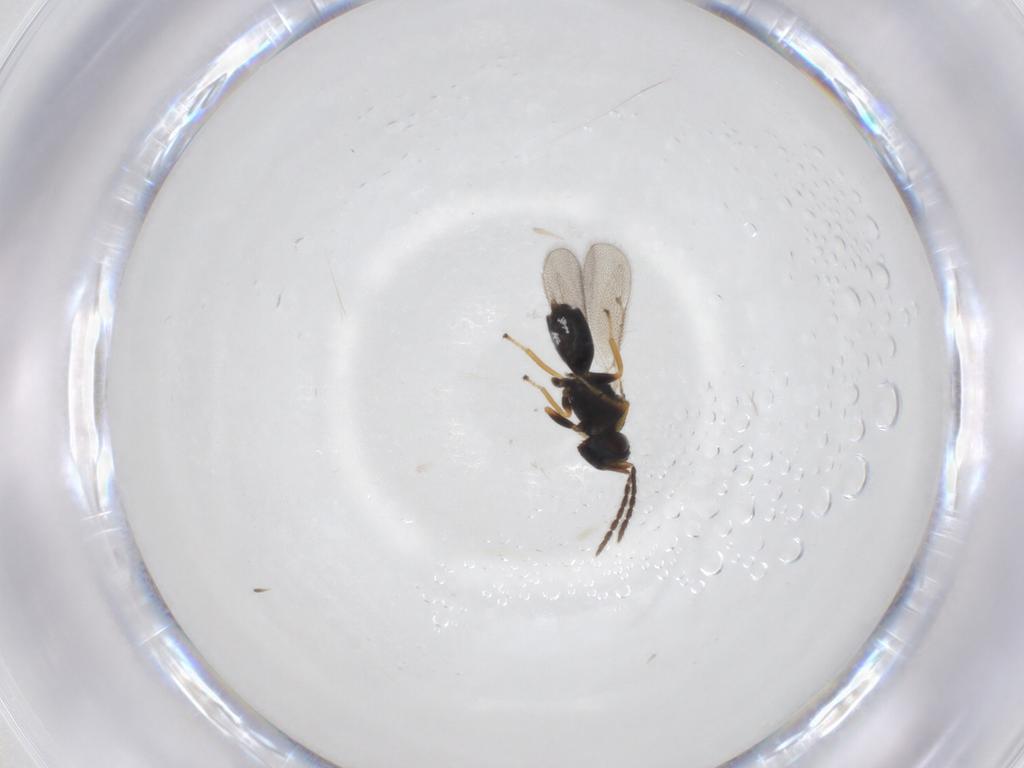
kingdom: Animalia
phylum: Arthropoda
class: Insecta
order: Hymenoptera
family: Eulophidae
